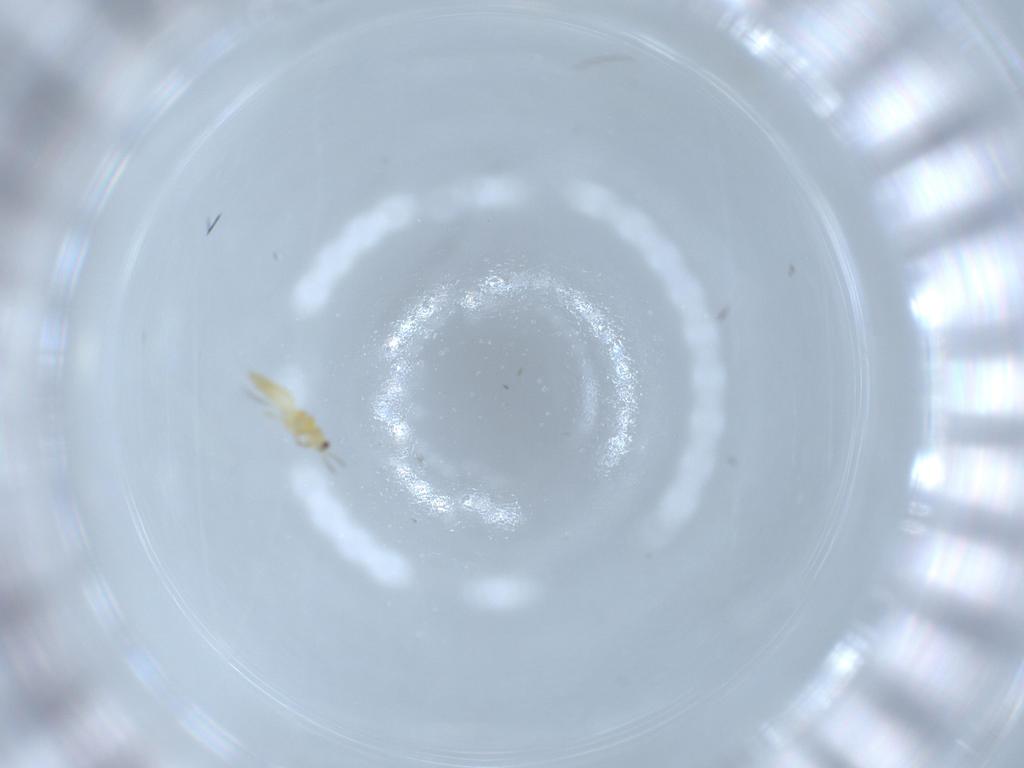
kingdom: Animalia
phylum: Arthropoda
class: Insecta
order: Thysanoptera
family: Thripidae
